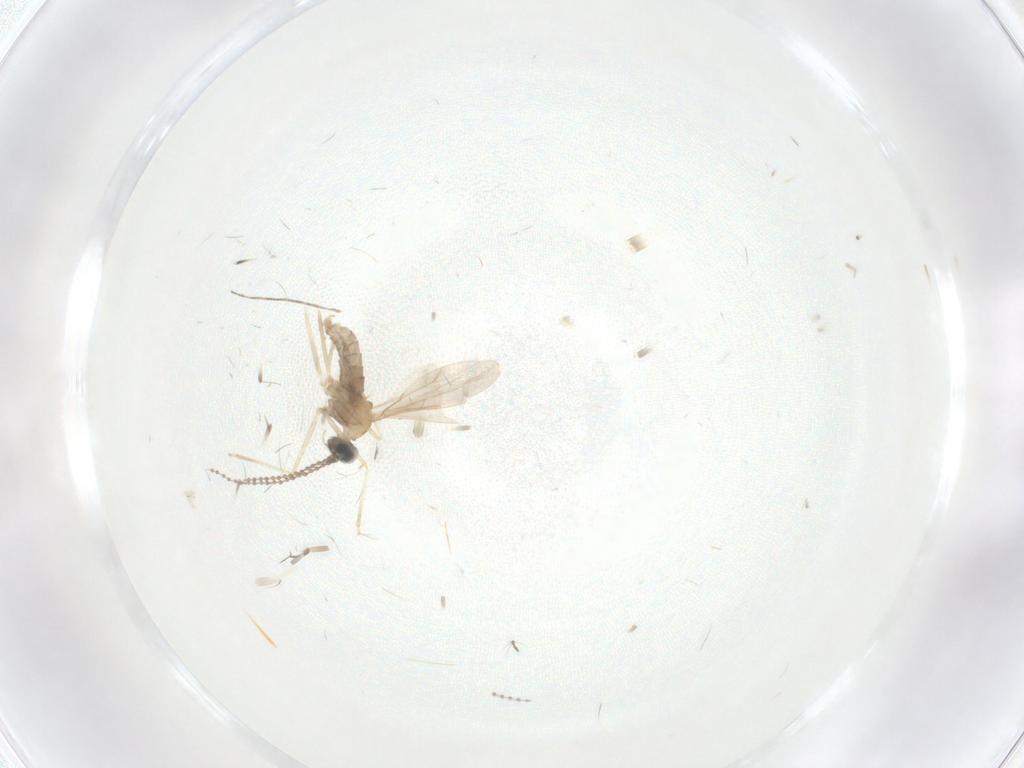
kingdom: Animalia
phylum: Arthropoda
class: Insecta
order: Diptera
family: Cecidomyiidae
